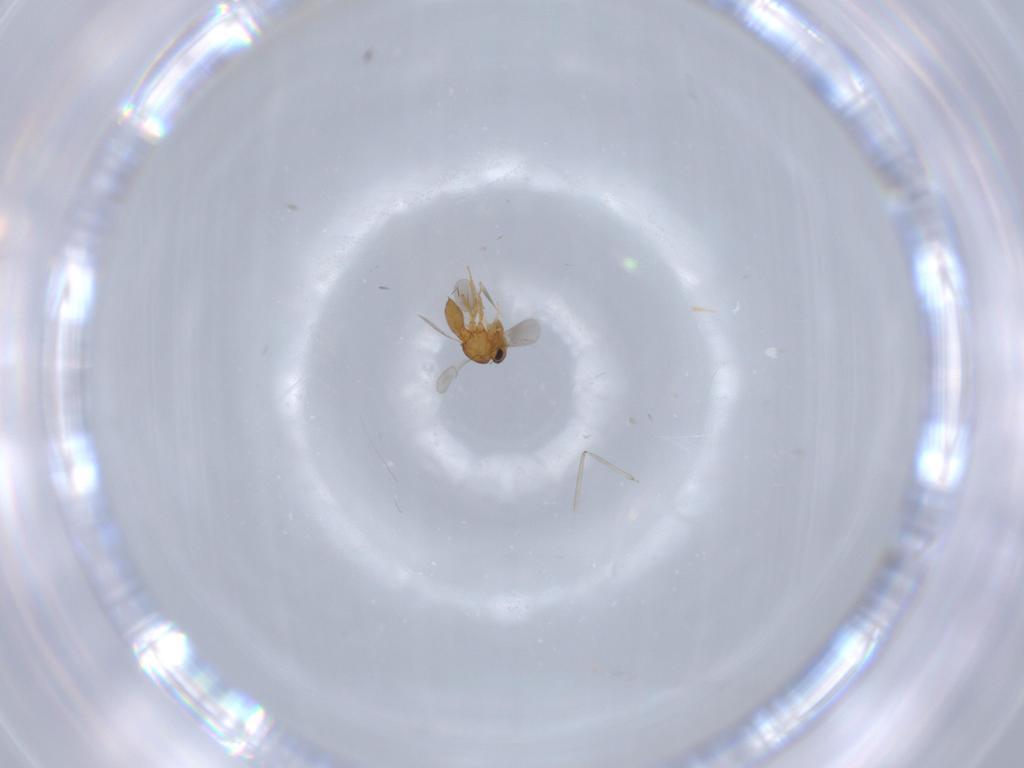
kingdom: Animalia
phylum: Arthropoda
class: Insecta
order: Hymenoptera
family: Scelionidae
